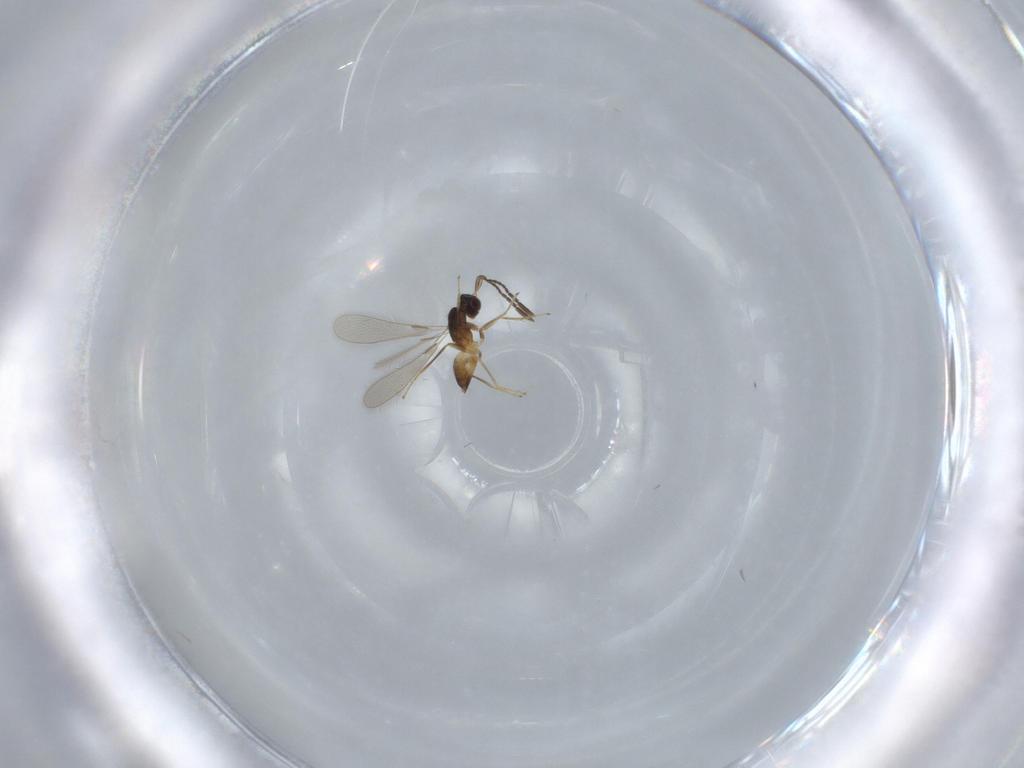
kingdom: Animalia
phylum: Arthropoda
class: Insecta
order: Hymenoptera
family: Mymaridae
